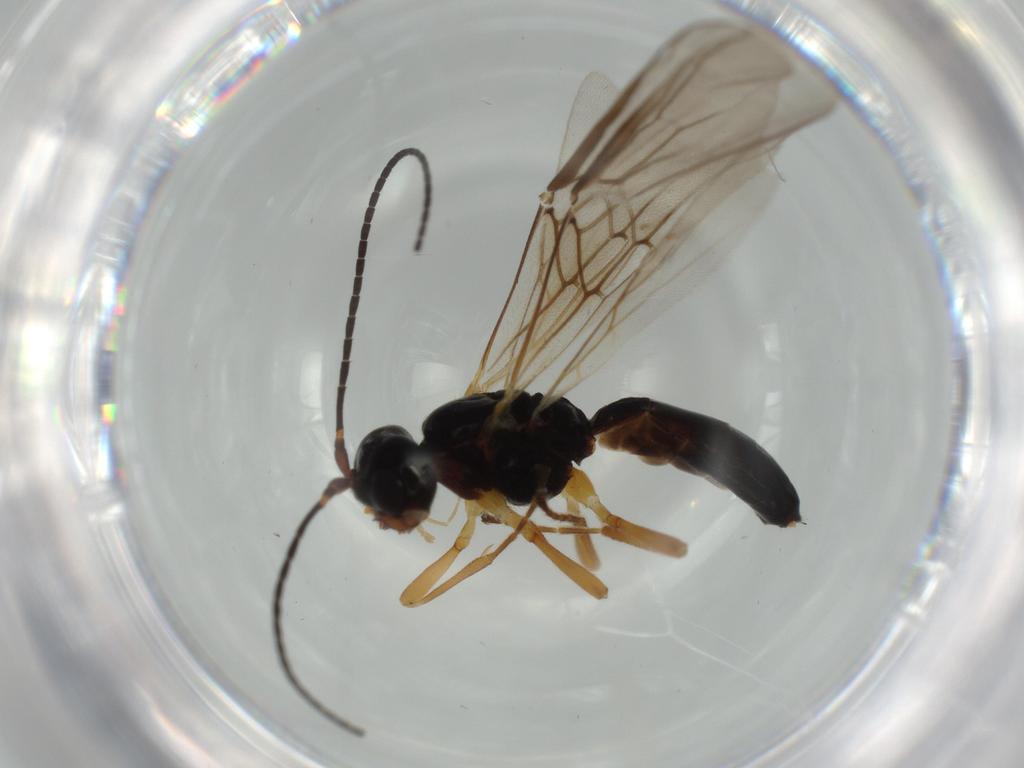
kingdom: Animalia
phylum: Arthropoda
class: Insecta
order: Hymenoptera
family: Braconidae
